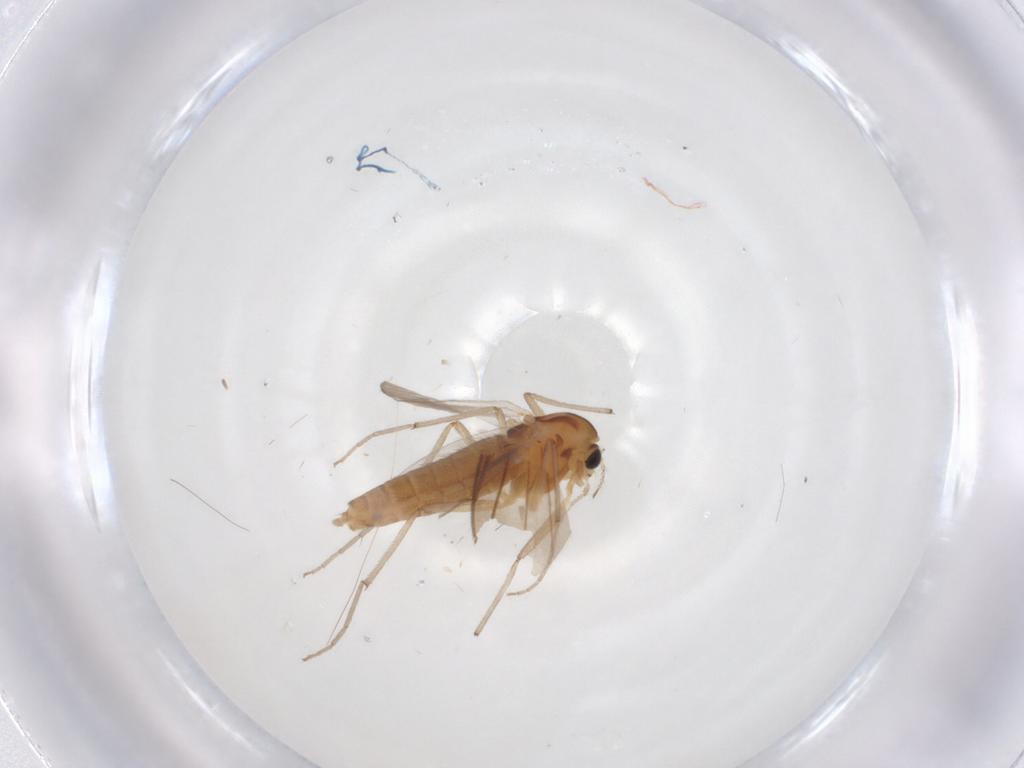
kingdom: Animalia
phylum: Arthropoda
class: Insecta
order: Diptera
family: Chironomidae
